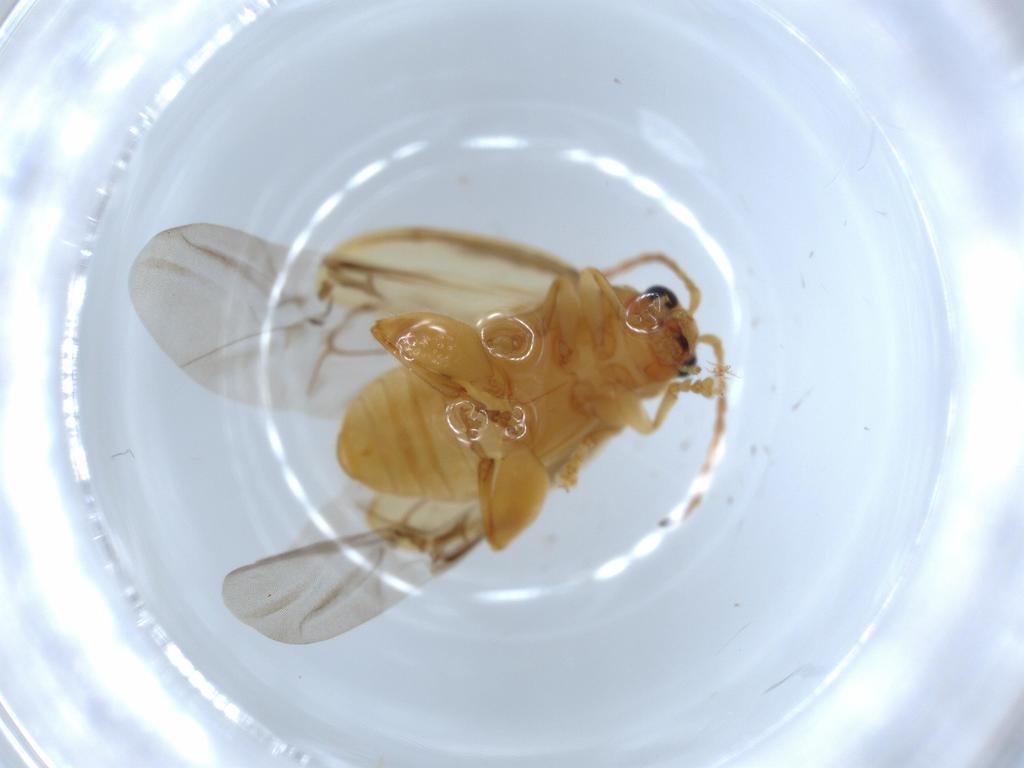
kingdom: Animalia
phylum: Arthropoda
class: Insecta
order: Coleoptera
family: Chrysomelidae
